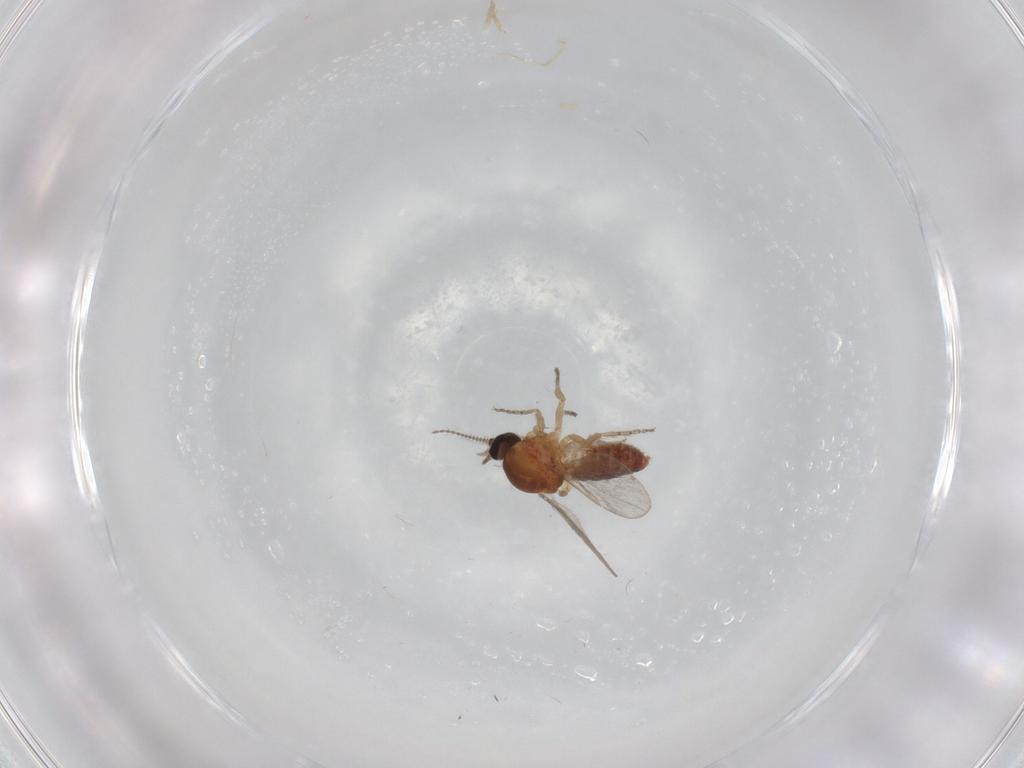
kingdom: Animalia
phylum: Arthropoda
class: Insecta
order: Diptera
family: Ceratopogonidae
